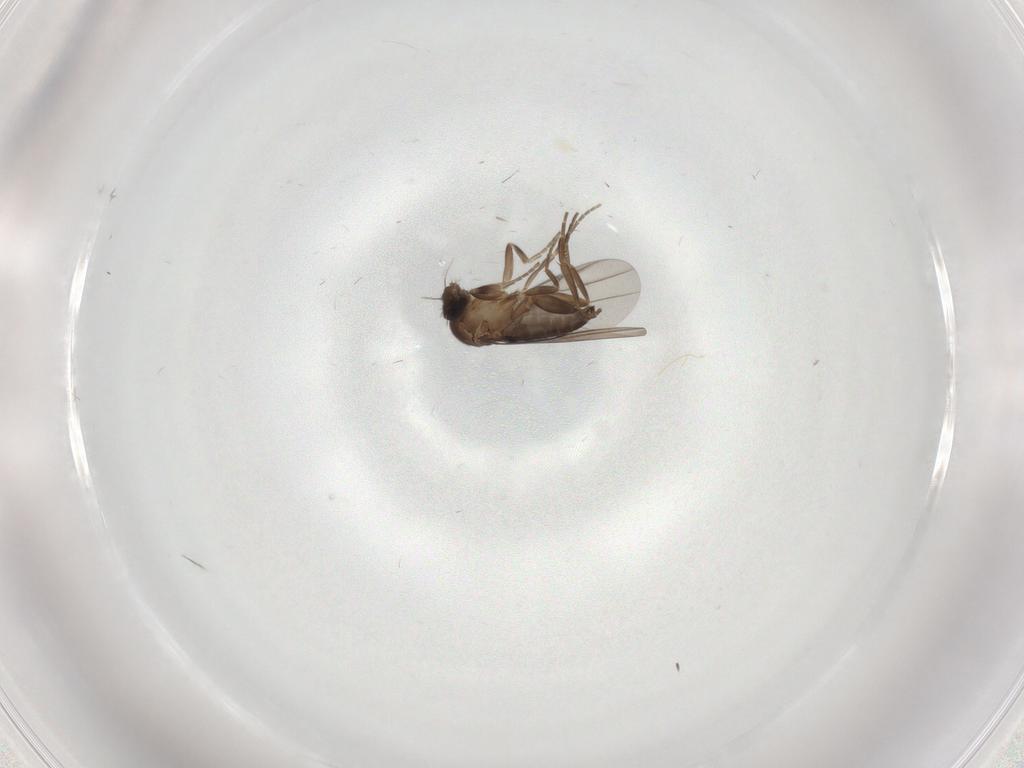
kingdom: Animalia
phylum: Arthropoda
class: Insecta
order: Diptera
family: Phoridae
